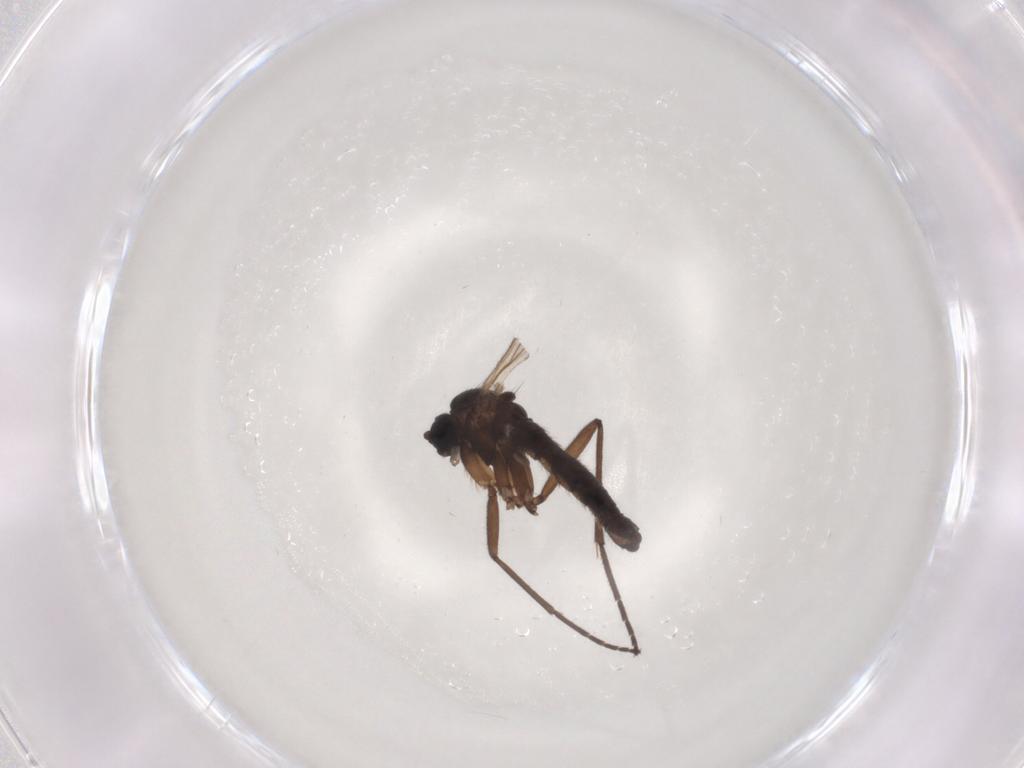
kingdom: Animalia
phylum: Arthropoda
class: Insecta
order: Diptera
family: Sciaridae
